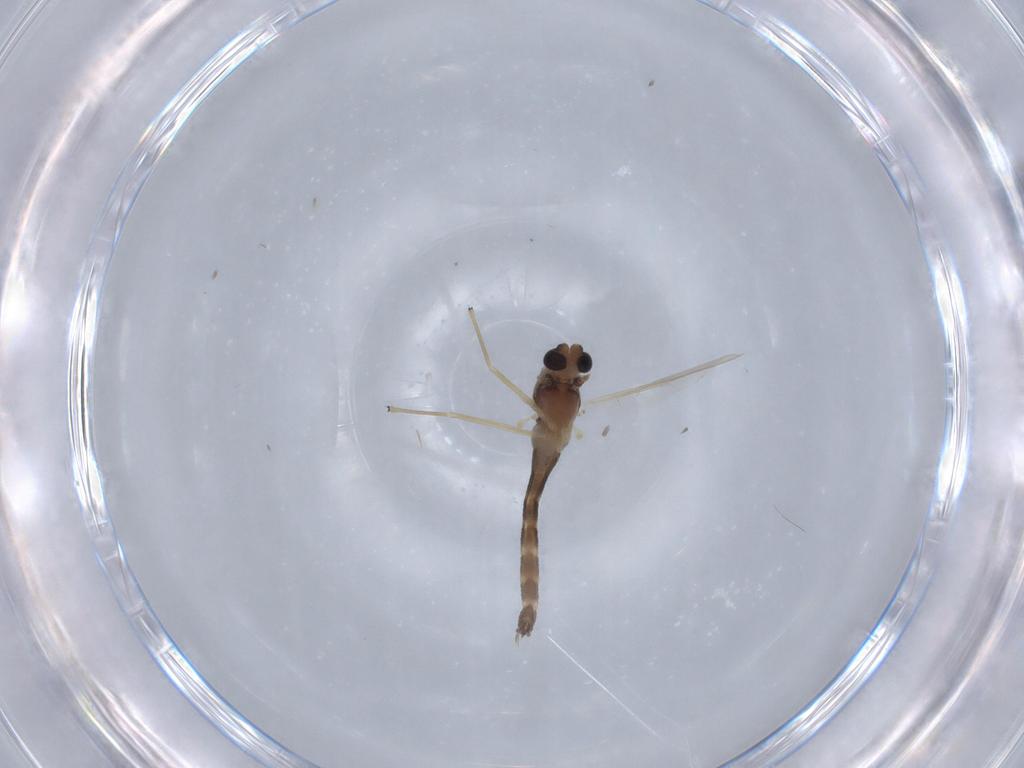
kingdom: Animalia
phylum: Arthropoda
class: Insecta
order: Diptera
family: Chironomidae
